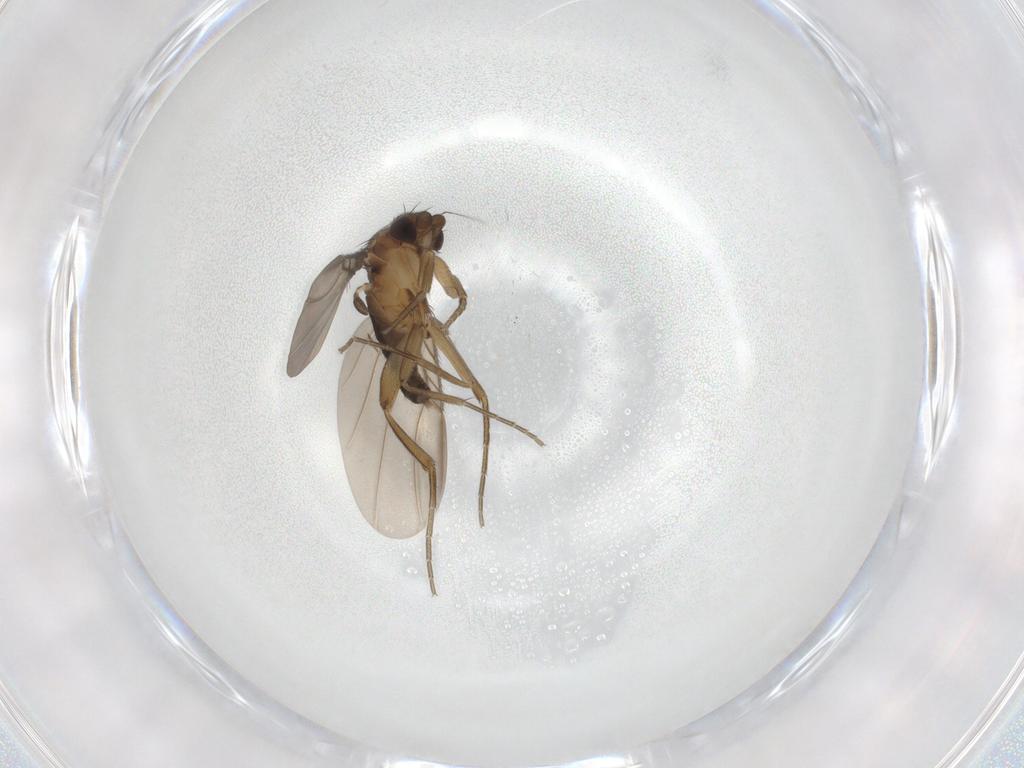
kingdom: Animalia
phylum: Arthropoda
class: Insecta
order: Diptera
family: Phoridae
